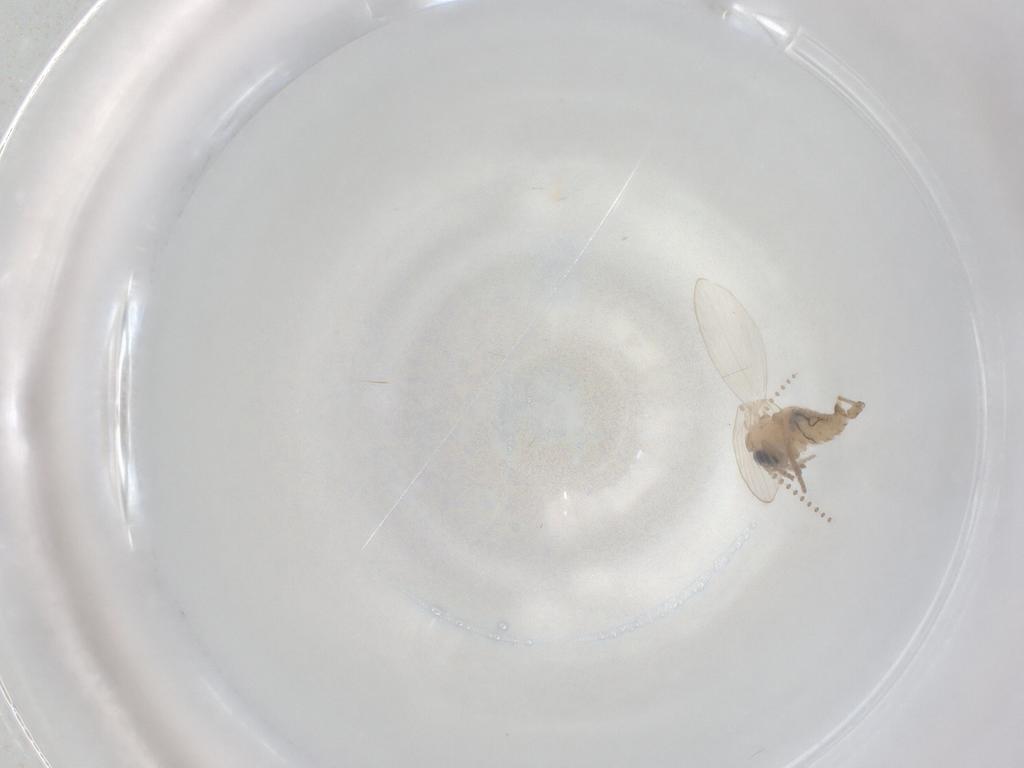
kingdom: Animalia
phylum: Arthropoda
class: Insecta
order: Diptera
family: Psychodidae
